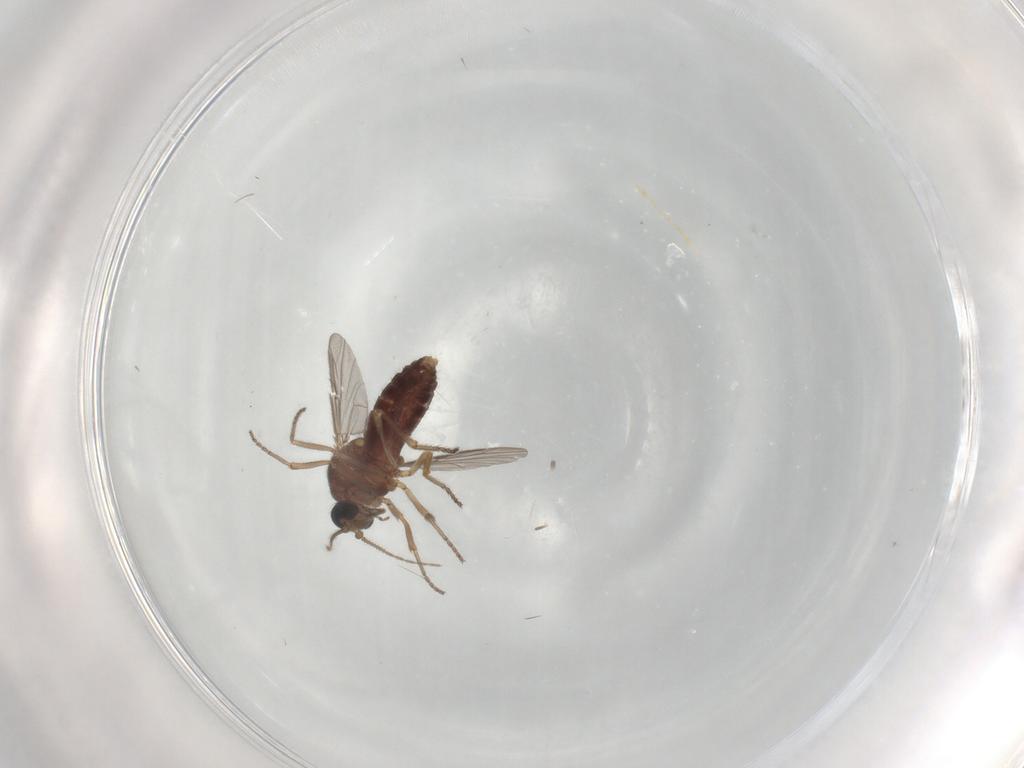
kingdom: Animalia
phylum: Arthropoda
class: Insecta
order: Diptera
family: Ceratopogonidae
